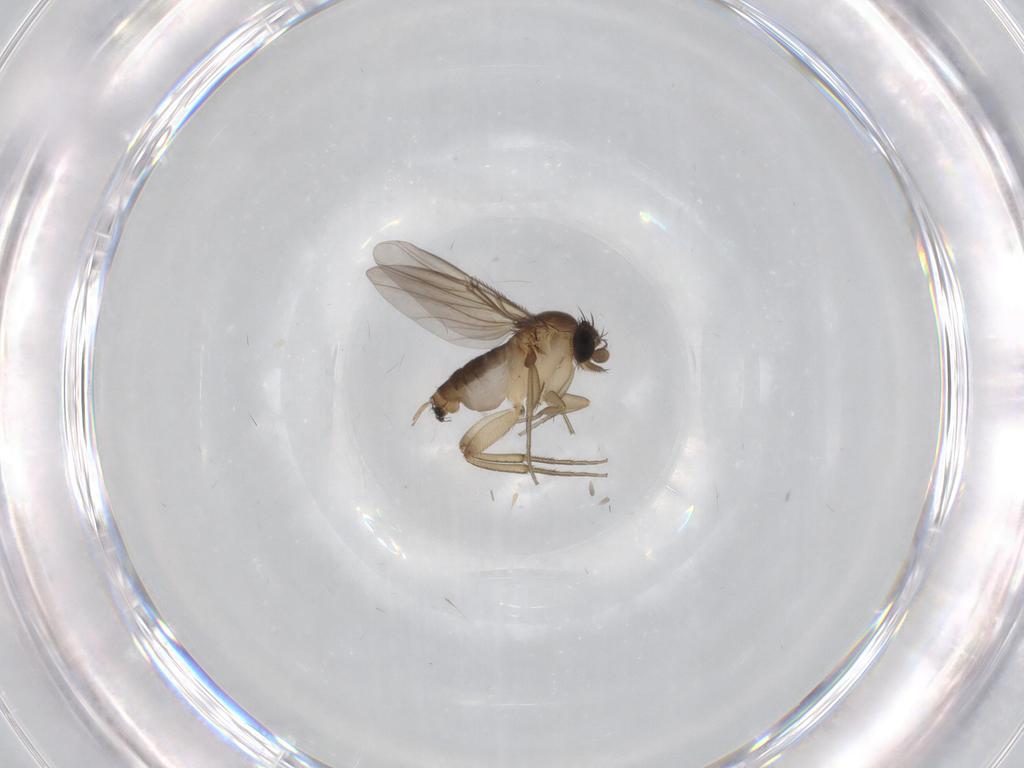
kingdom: Animalia
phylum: Arthropoda
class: Insecta
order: Diptera
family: Phoridae
